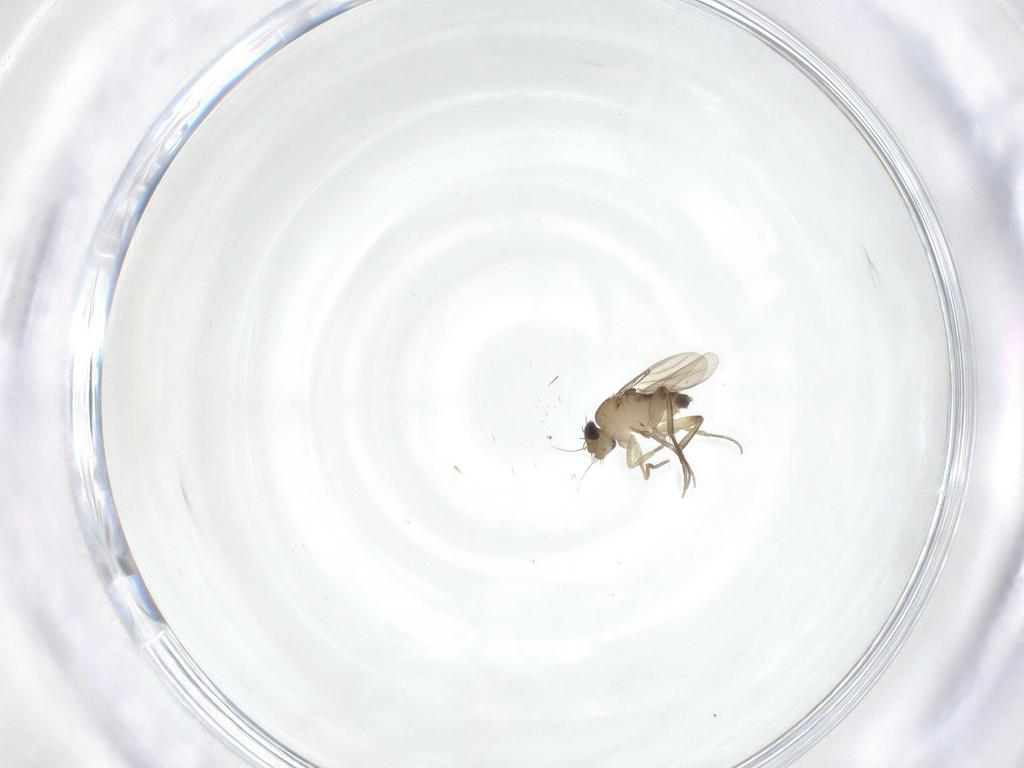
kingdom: Animalia
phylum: Arthropoda
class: Insecta
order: Diptera
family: Phoridae
